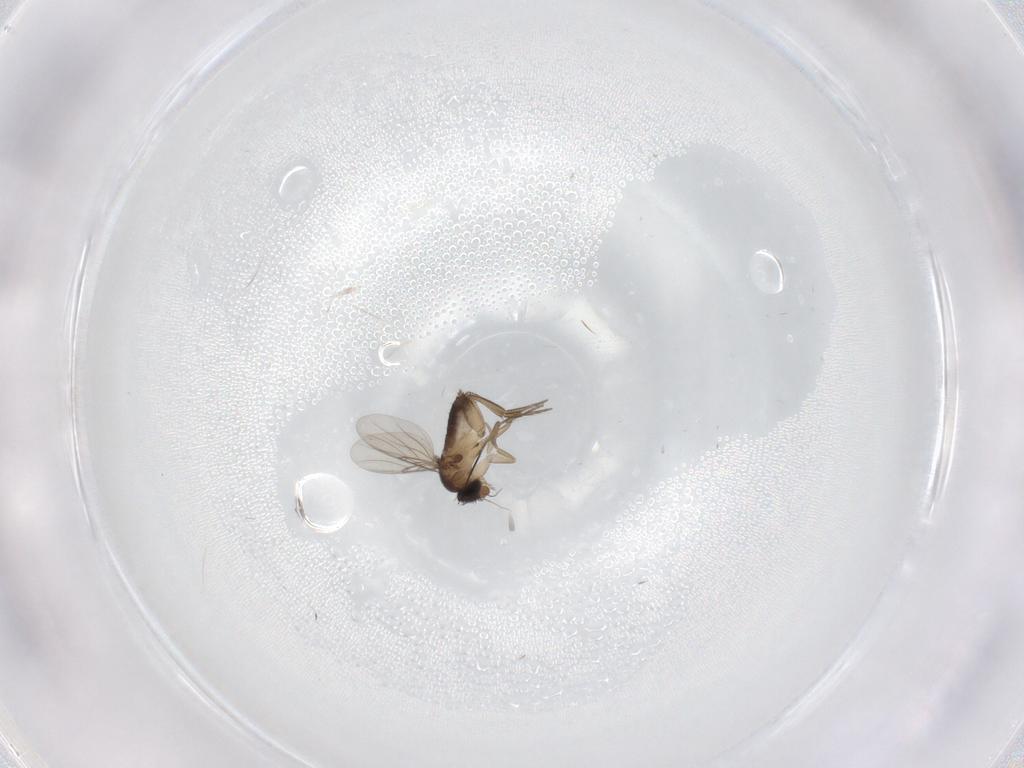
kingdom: Animalia
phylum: Arthropoda
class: Insecta
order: Diptera
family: Phoridae
